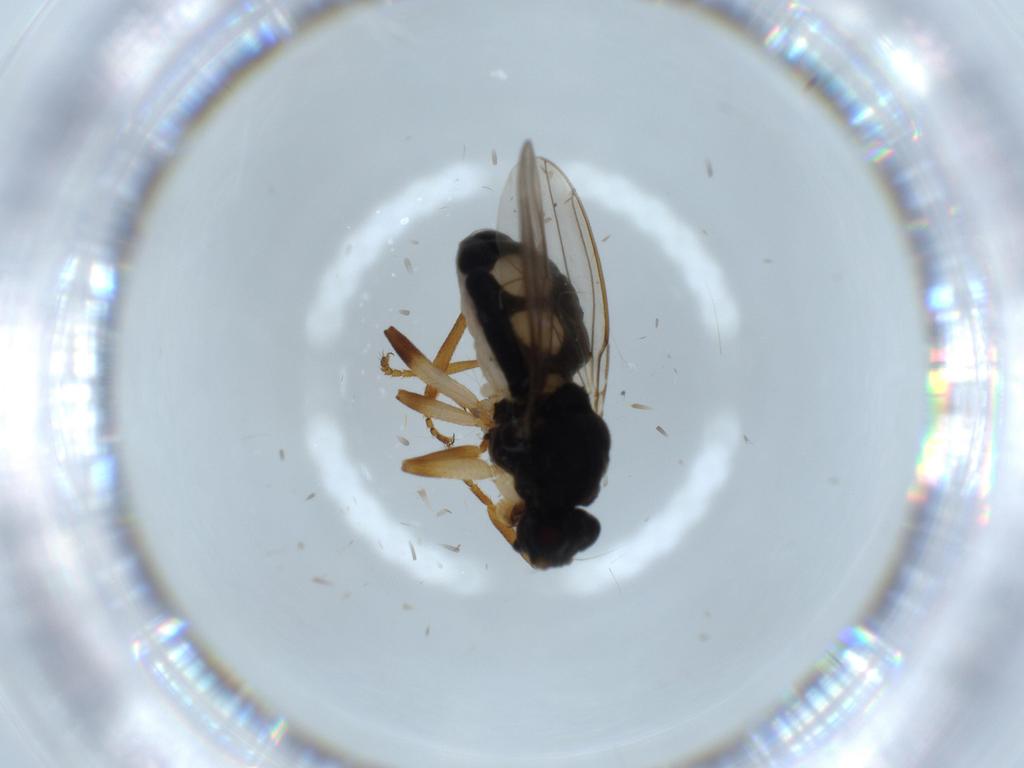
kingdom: Animalia
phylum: Arthropoda
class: Insecta
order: Diptera
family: Sphaeroceridae
